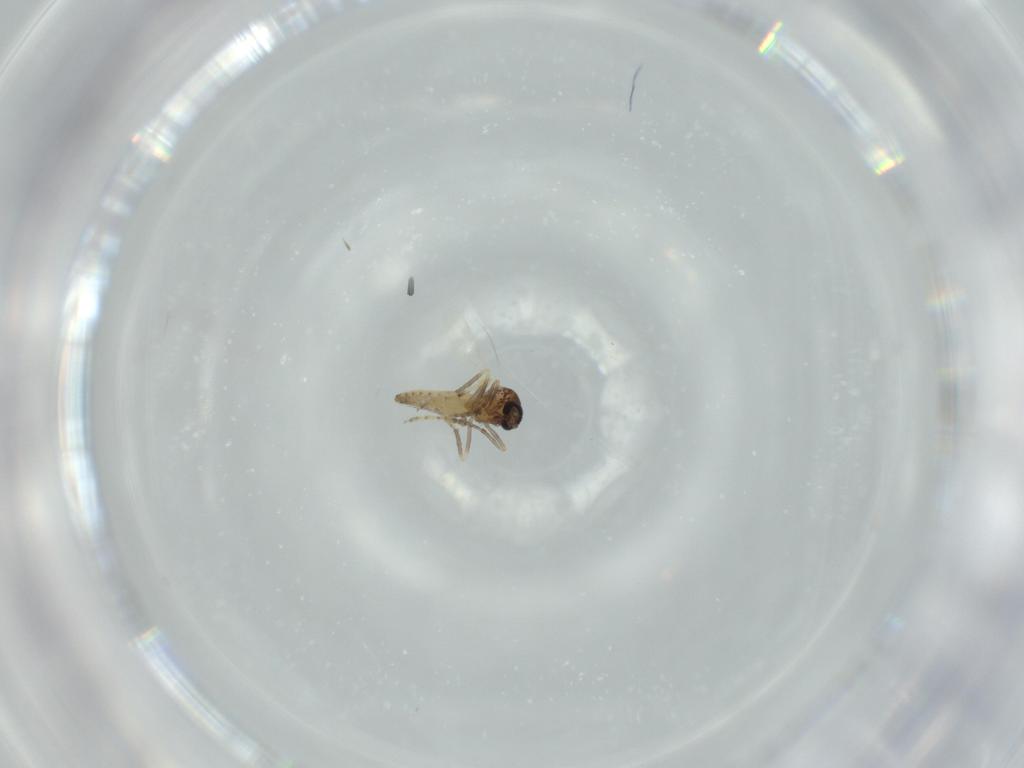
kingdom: Animalia
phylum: Arthropoda
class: Insecta
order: Diptera
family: Ceratopogonidae
